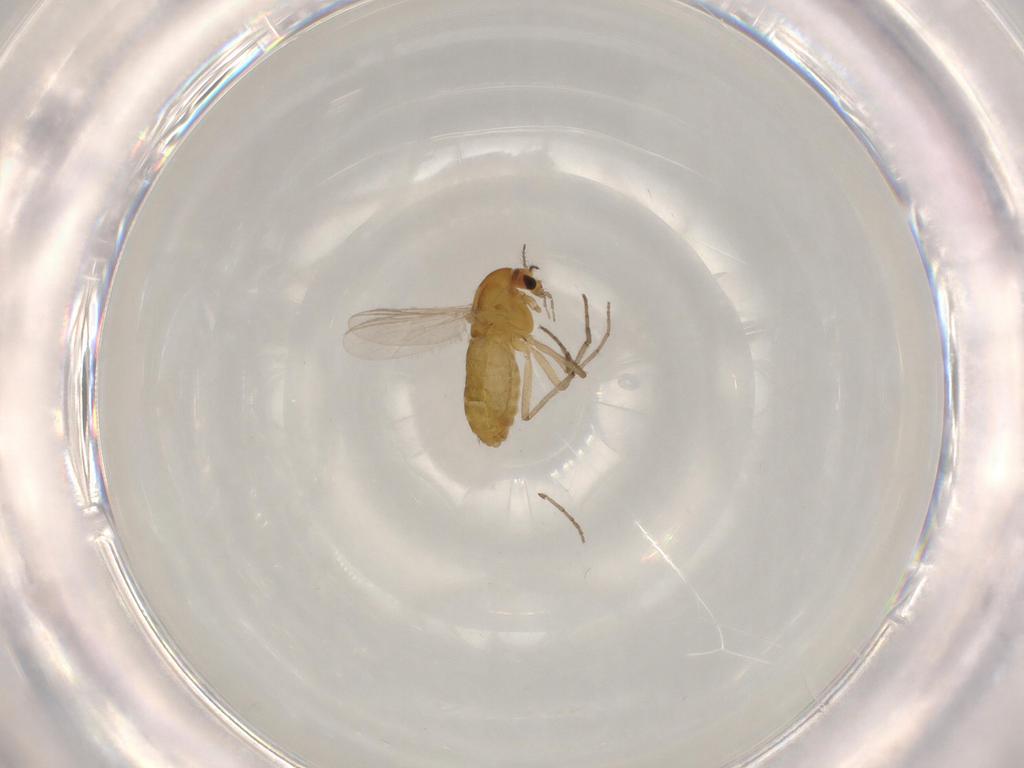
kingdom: Animalia
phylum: Arthropoda
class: Insecta
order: Diptera
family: Chironomidae
